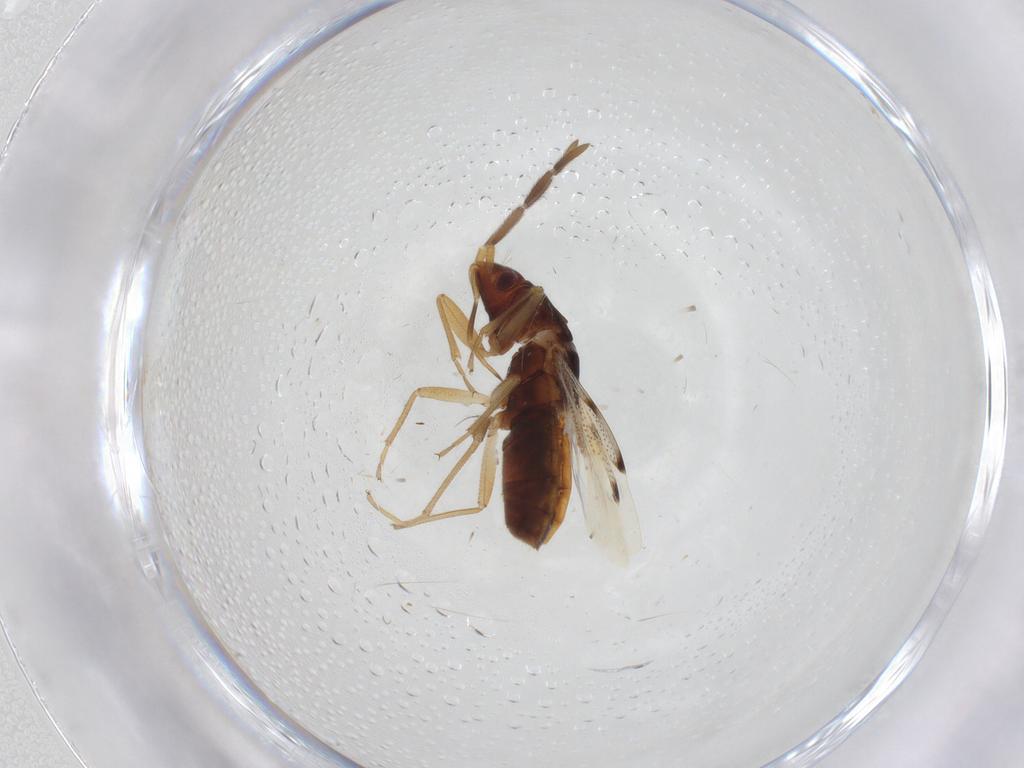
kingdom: Animalia
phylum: Arthropoda
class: Insecta
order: Hemiptera
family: Rhyparochromidae
